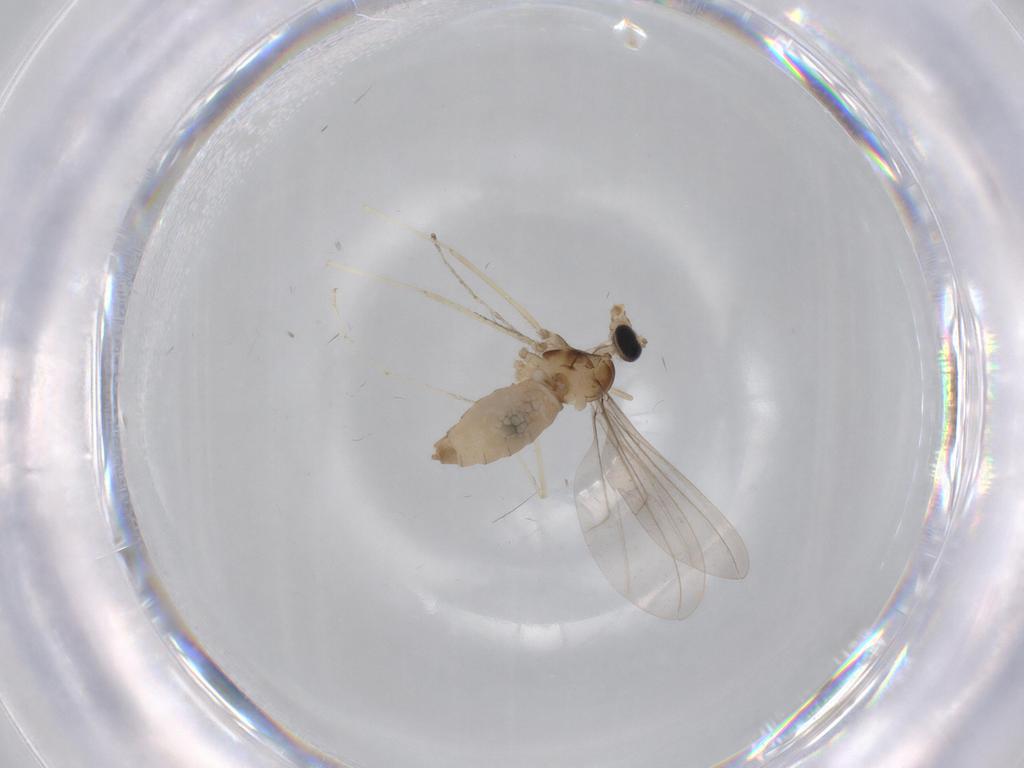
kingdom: Animalia
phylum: Arthropoda
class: Insecta
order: Diptera
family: Cecidomyiidae
